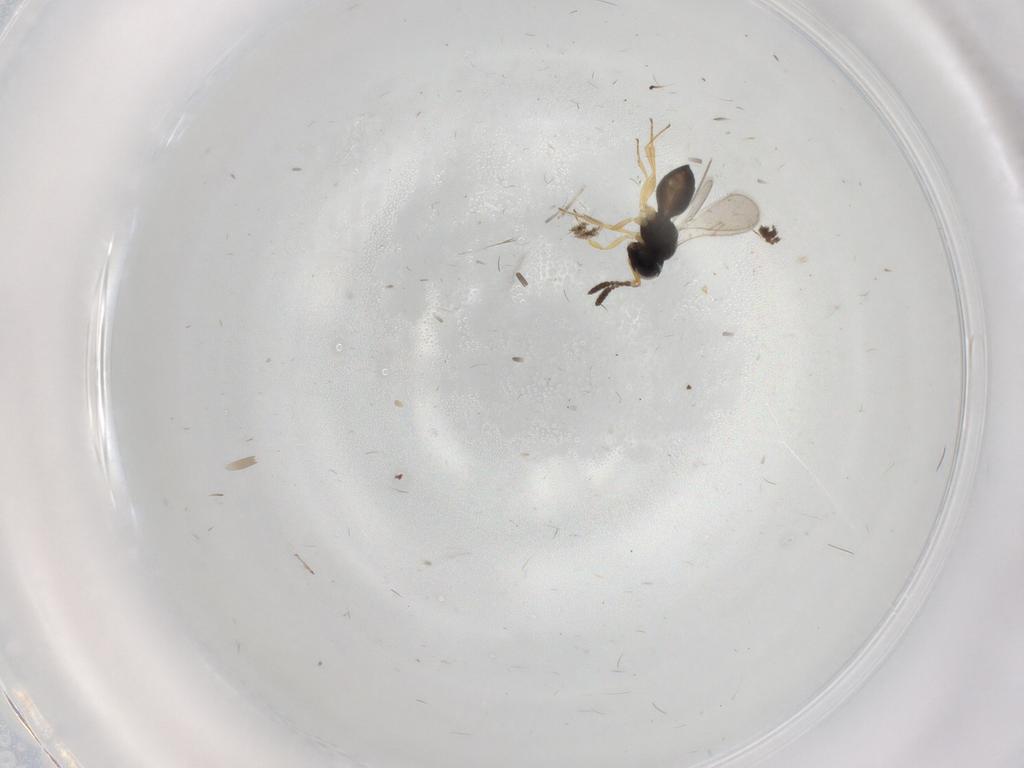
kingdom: Animalia
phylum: Arthropoda
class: Insecta
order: Hymenoptera
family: Scelionidae
